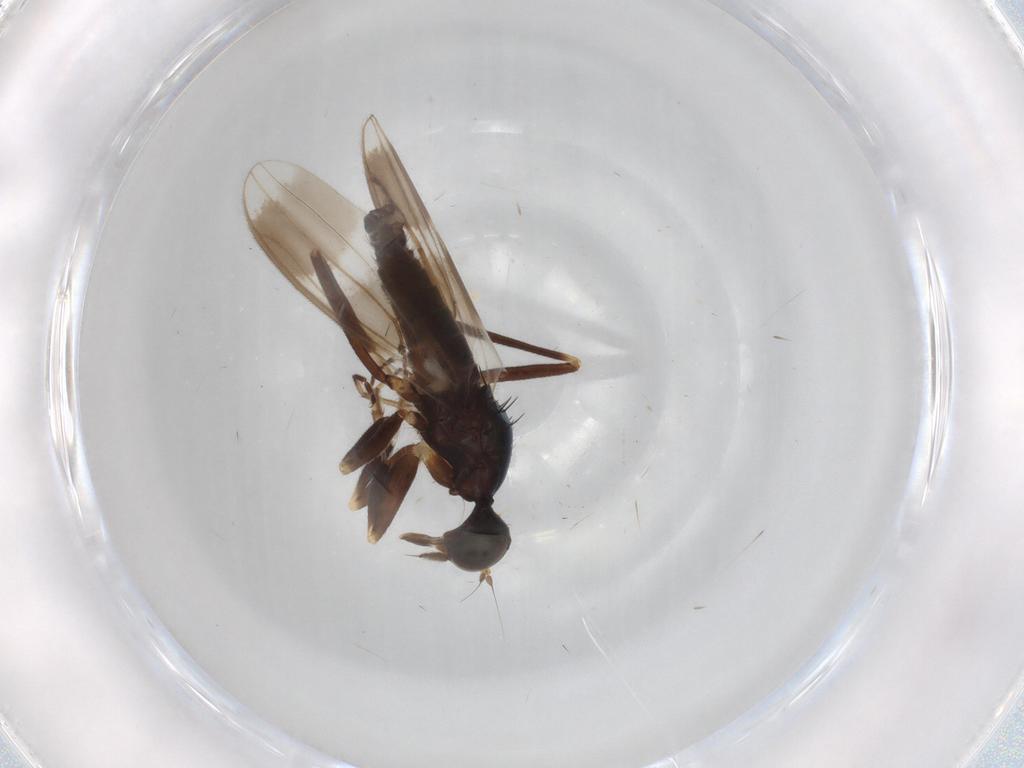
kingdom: Animalia
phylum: Arthropoda
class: Insecta
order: Diptera
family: Hybotidae
